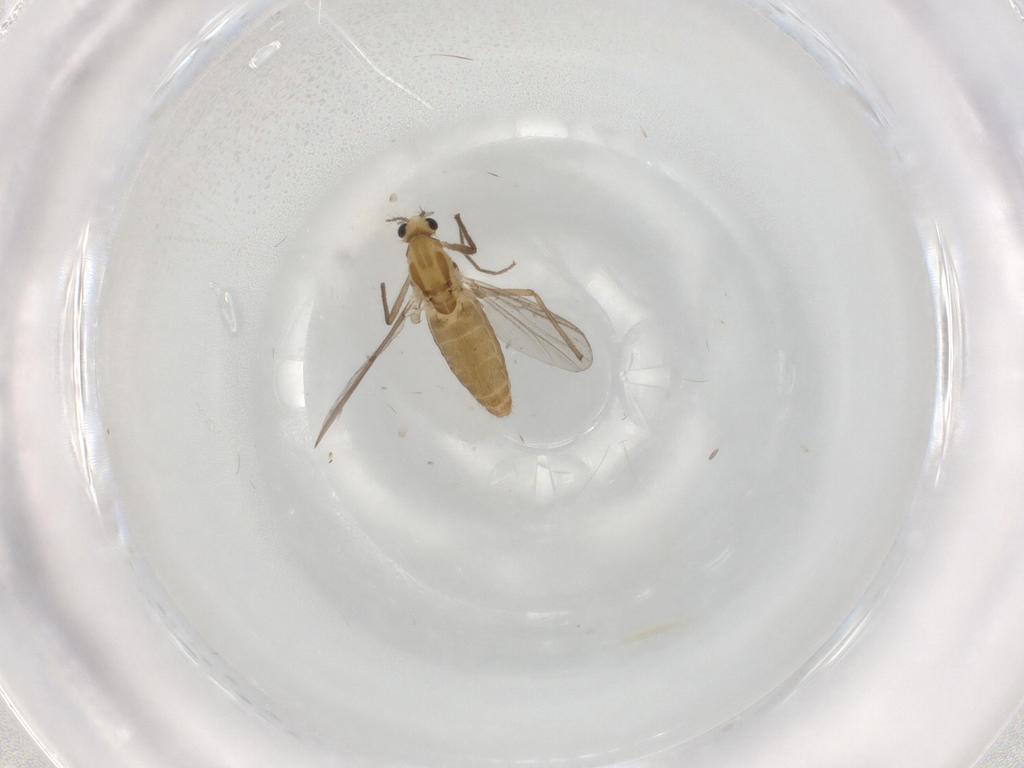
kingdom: Animalia
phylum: Arthropoda
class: Insecta
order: Diptera
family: Chironomidae
